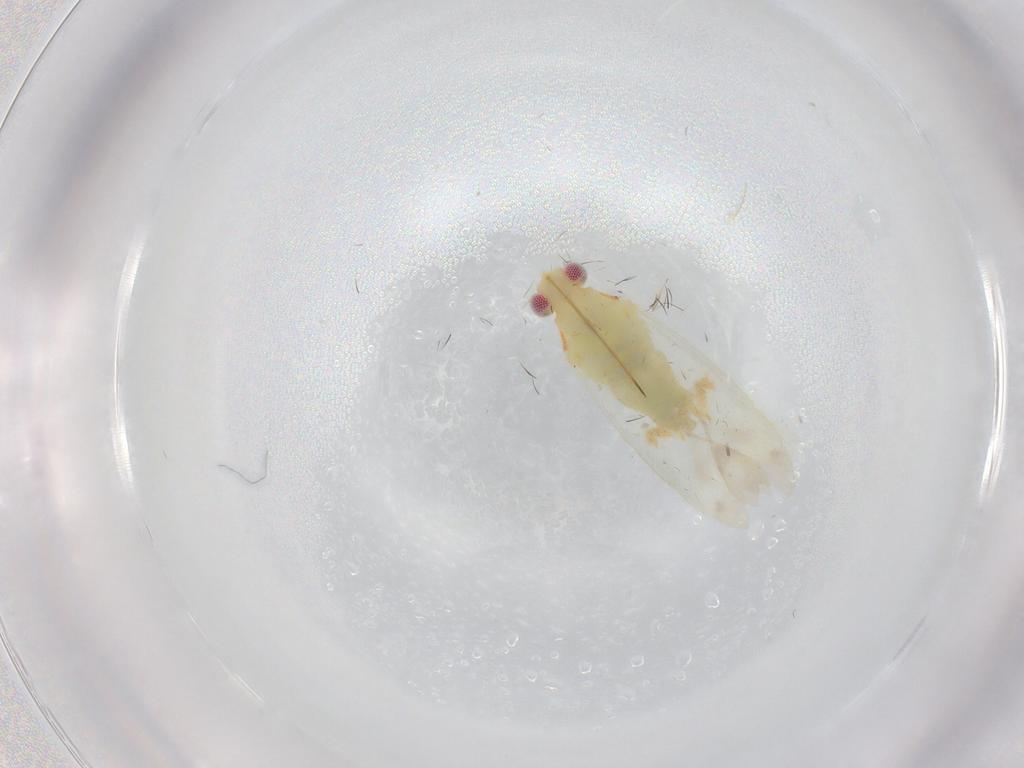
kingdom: Animalia
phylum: Arthropoda
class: Insecta
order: Hemiptera
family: Miridae
